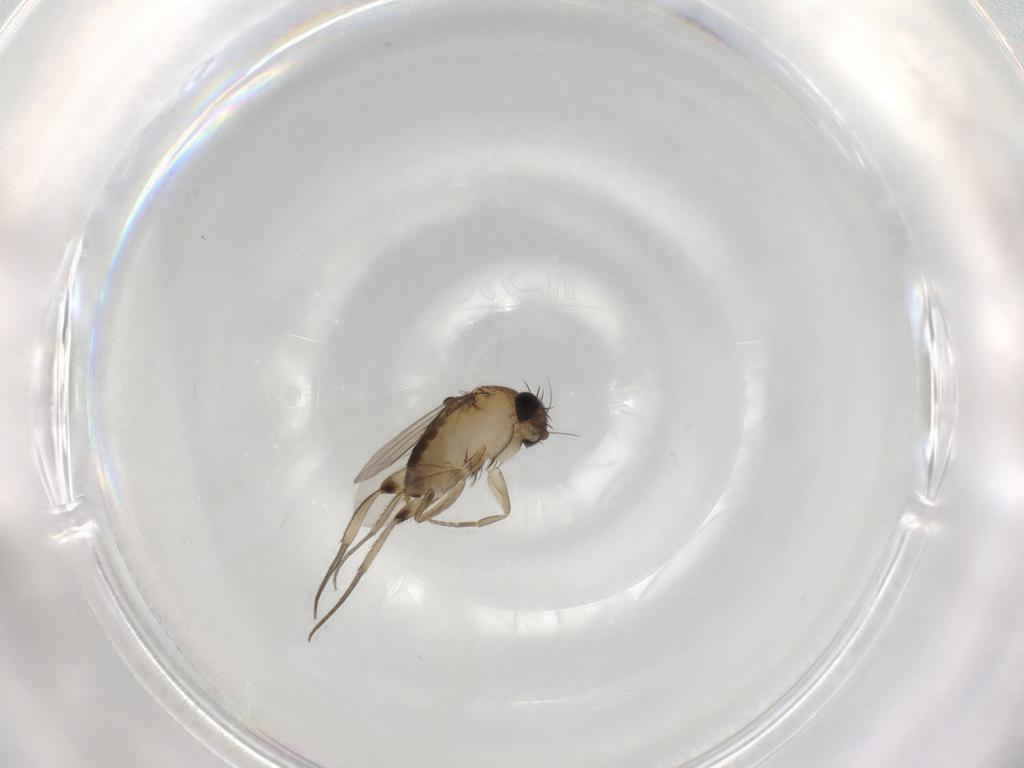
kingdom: Animalia
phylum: Arthropoda
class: Insecta
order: Diptera
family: Phoridae
